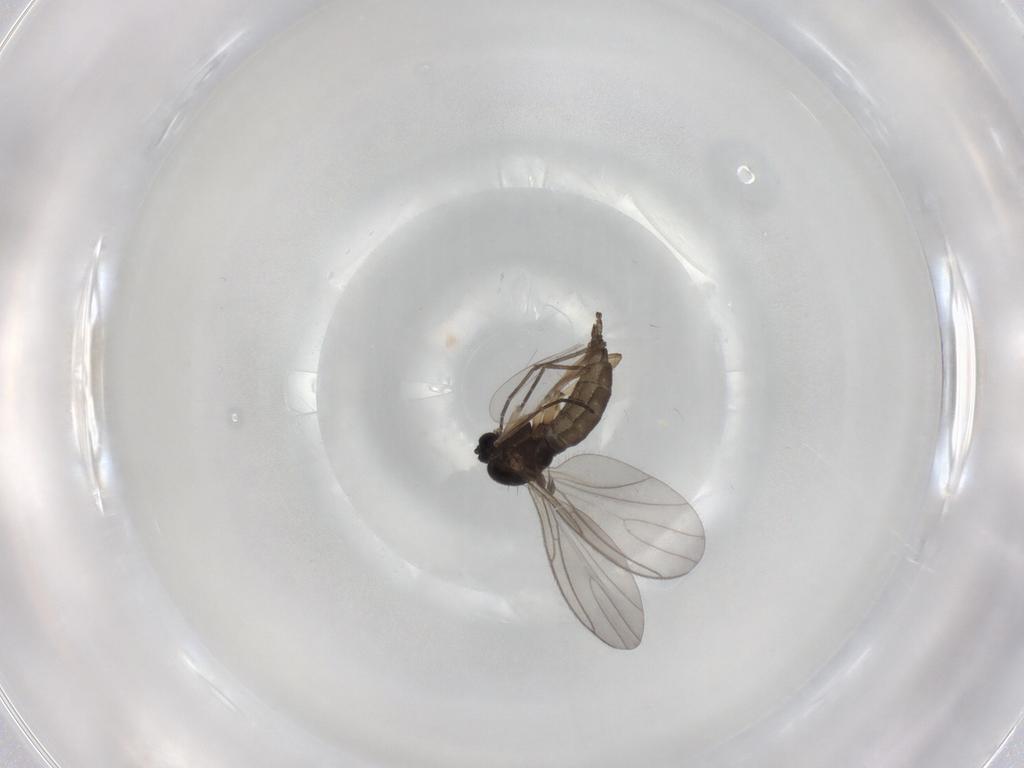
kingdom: Animalia
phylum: Arthropoda
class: Insecta
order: Diptera
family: Sciaridae
